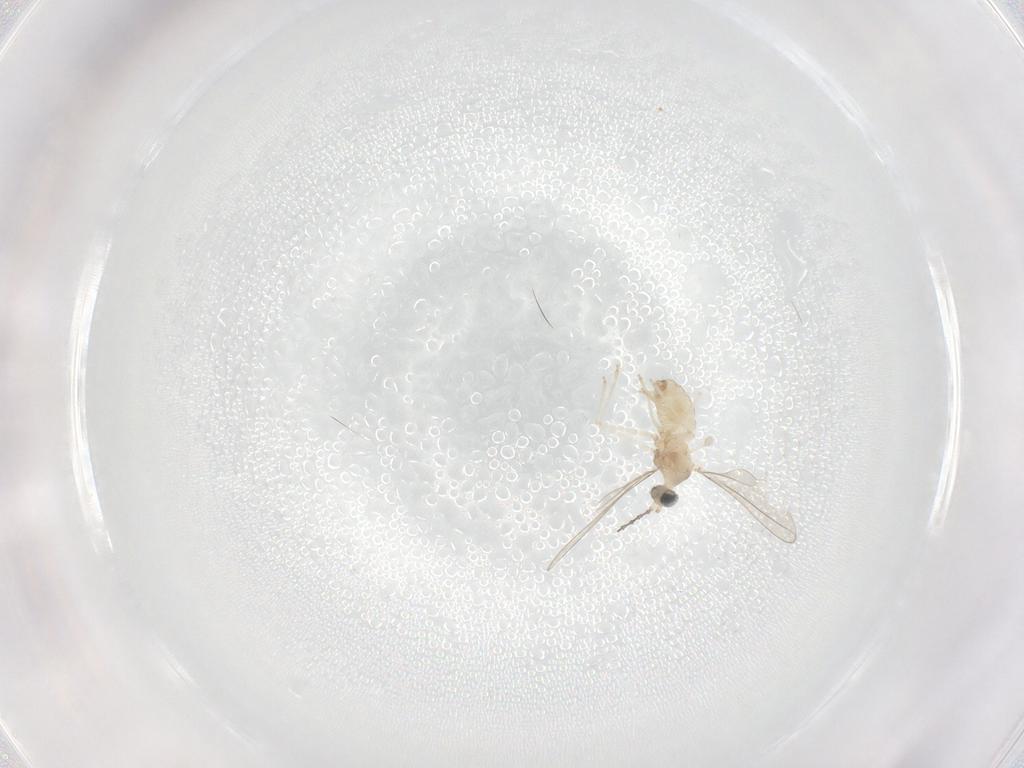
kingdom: Animalia
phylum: Arthropoda
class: Insecta
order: Diptera
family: Cecidomyiidae
